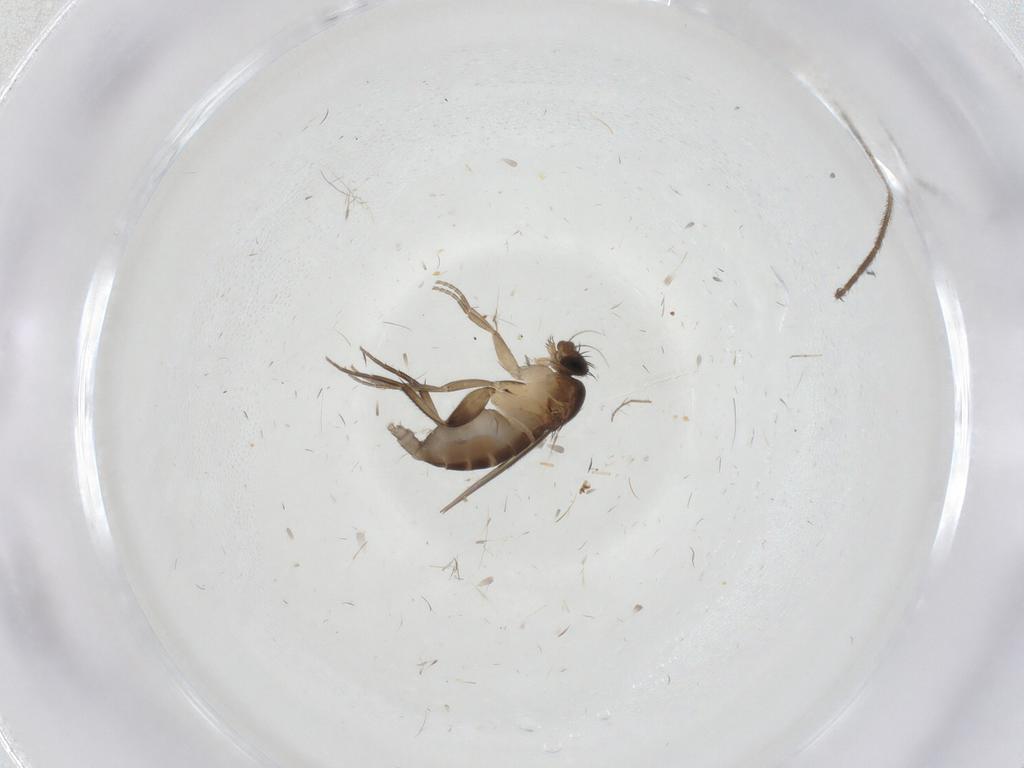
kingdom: Animalia
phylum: Arthropoda
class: Insecta
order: Diptera
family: Phoridae
